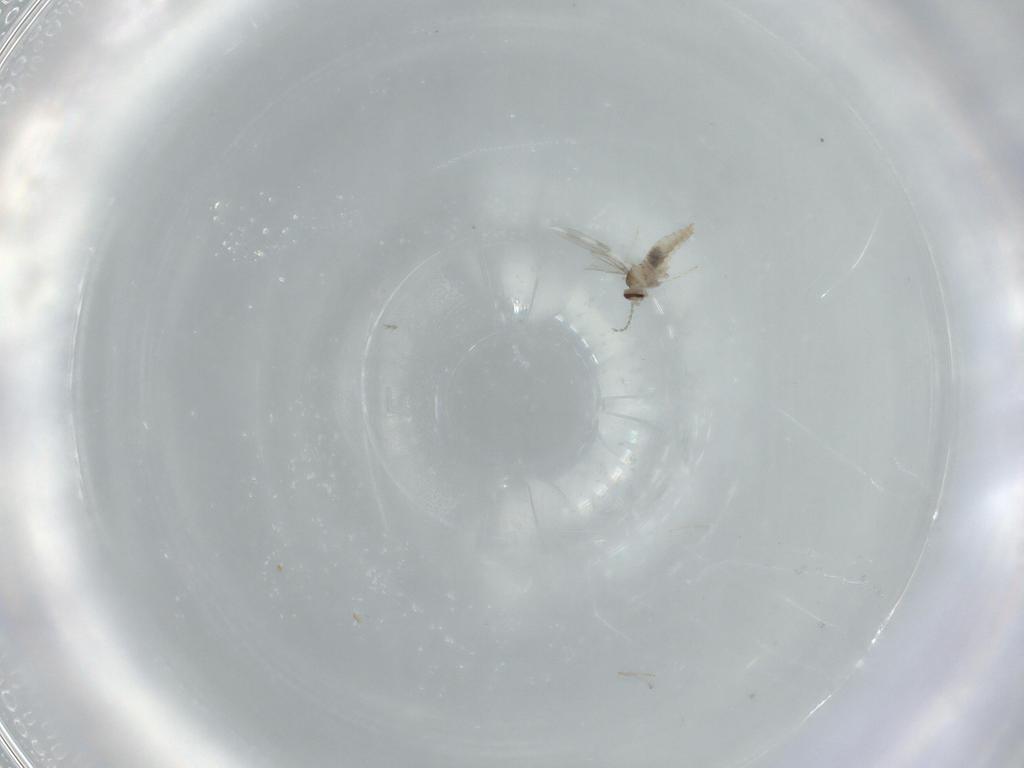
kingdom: Animalia
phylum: Arthropoda
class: Insecta
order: Diptera
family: Cecidomyiidae
